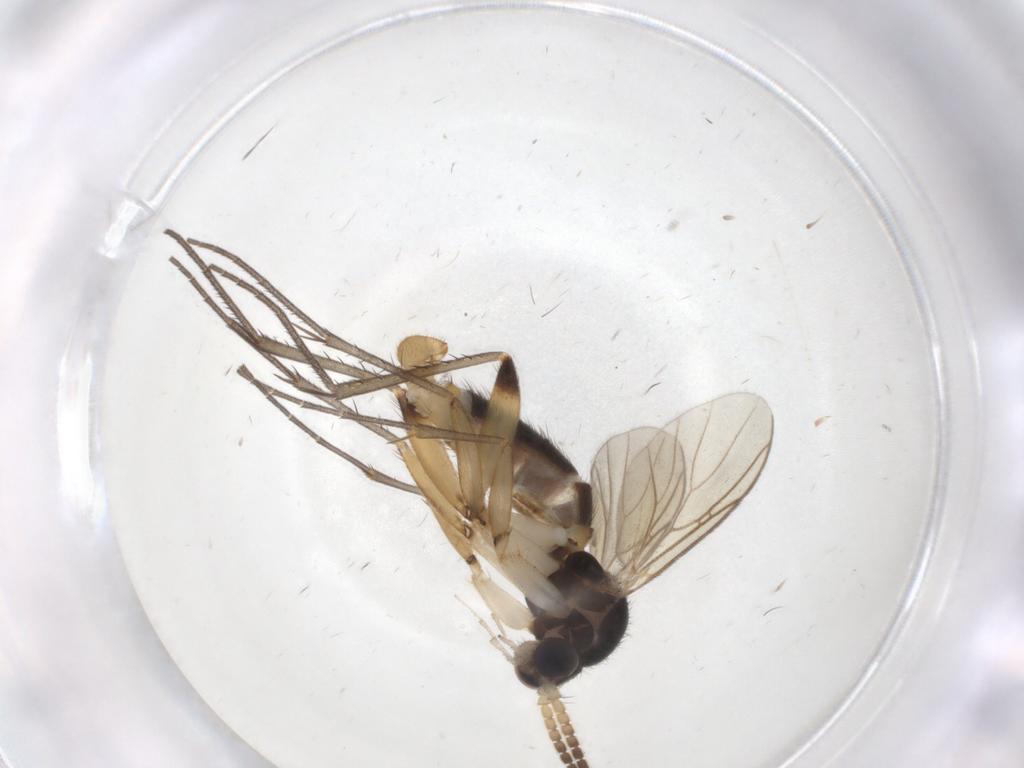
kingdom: Animalia
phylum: Arthropoda
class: Insecta
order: Diptera
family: Mycetophilidae
